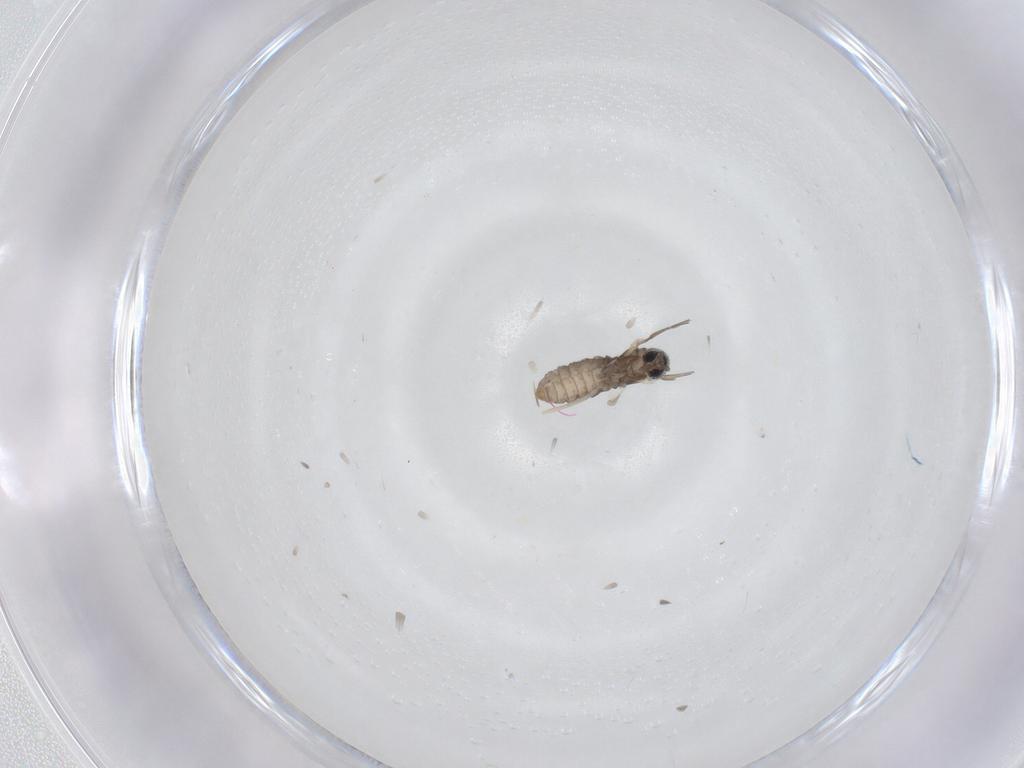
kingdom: Animalia
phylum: Arthropoda
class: Insecta
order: Diptera
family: Cecidomyiidae
